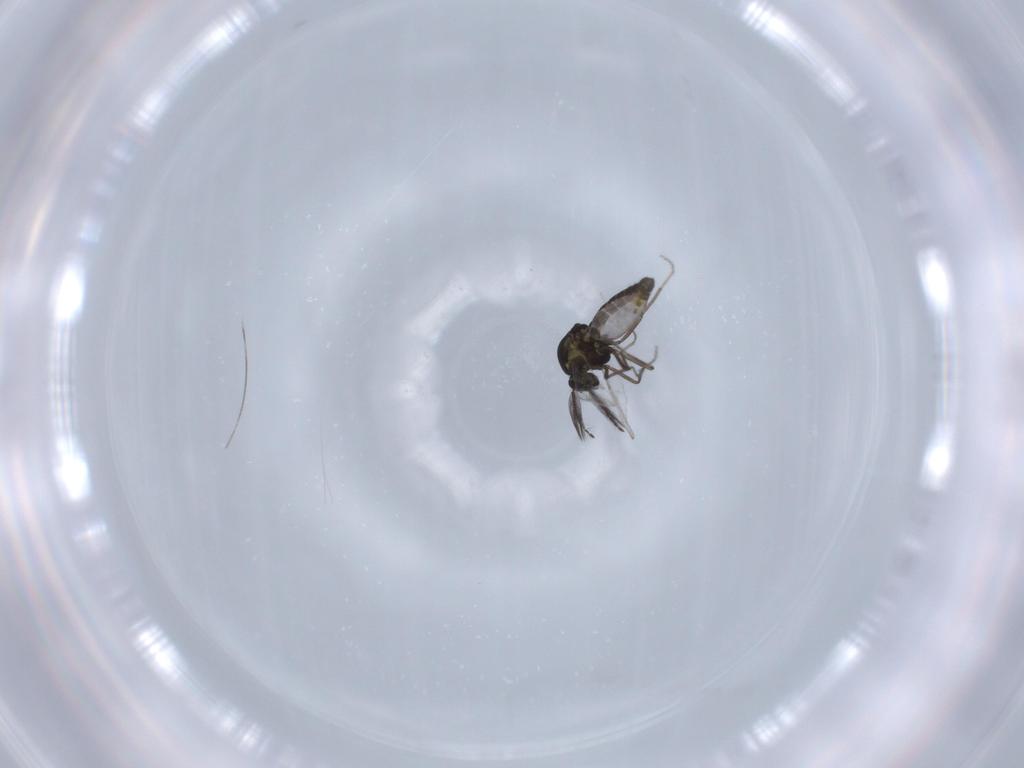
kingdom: Animalia
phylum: Arthropoda
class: Insecta
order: Diptera
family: Ceratopogonidae
